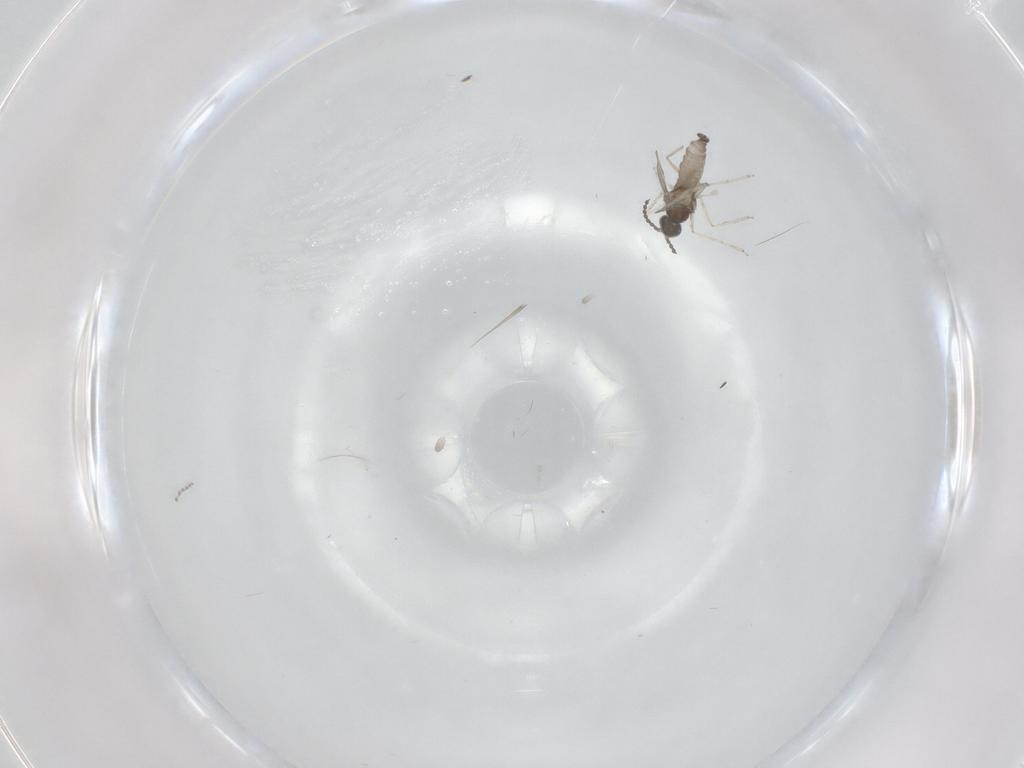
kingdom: Animalia
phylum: Arthropoda
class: Insecta
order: Diptera
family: Cecidomyiidae
